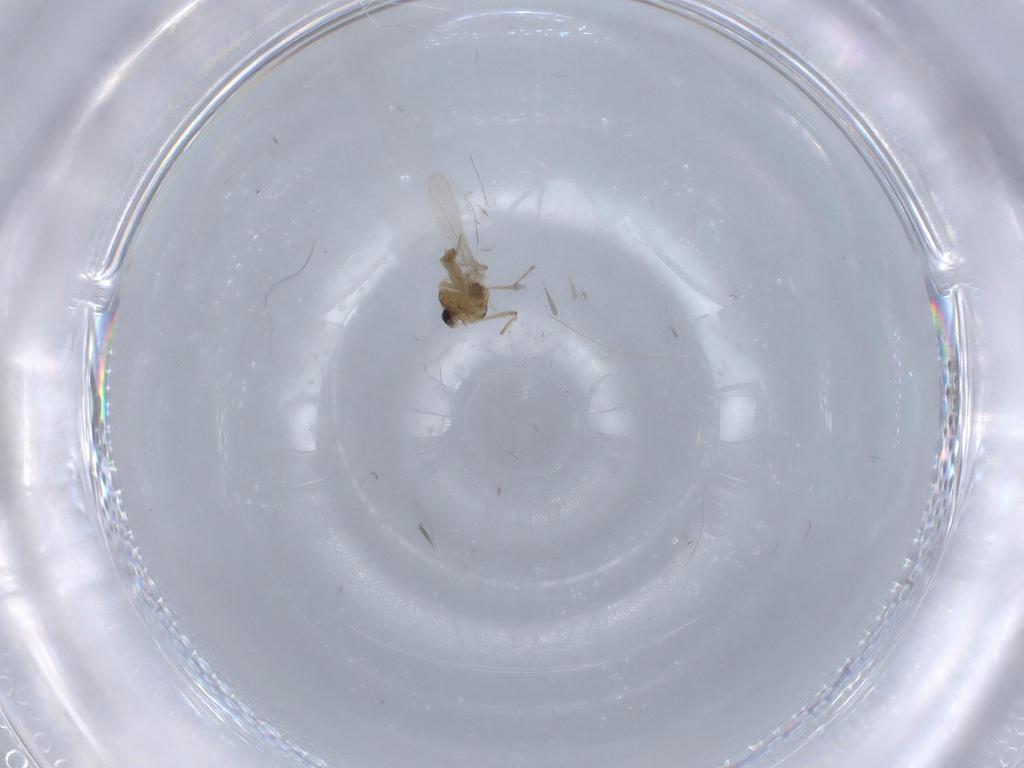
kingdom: Animalia
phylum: Arthropoda
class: Insecta
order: Diptera
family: Chironomidae
